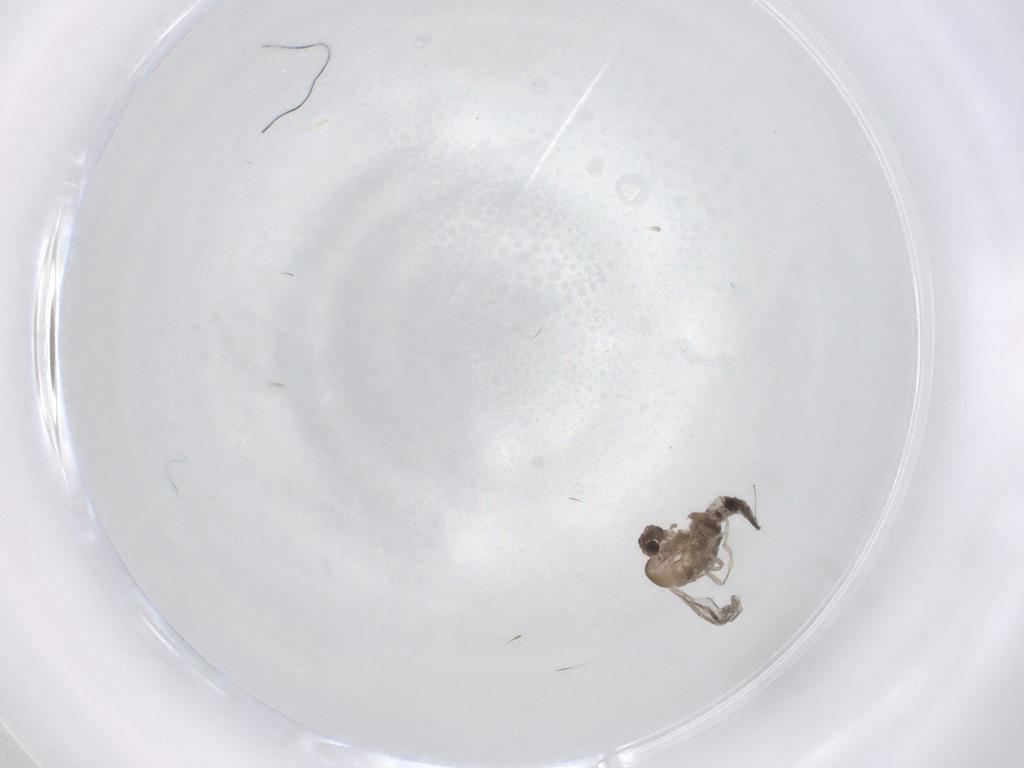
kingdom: Animalia
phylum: Arthropoda
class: Insecta
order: Diptera
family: Cecidomyiidae
